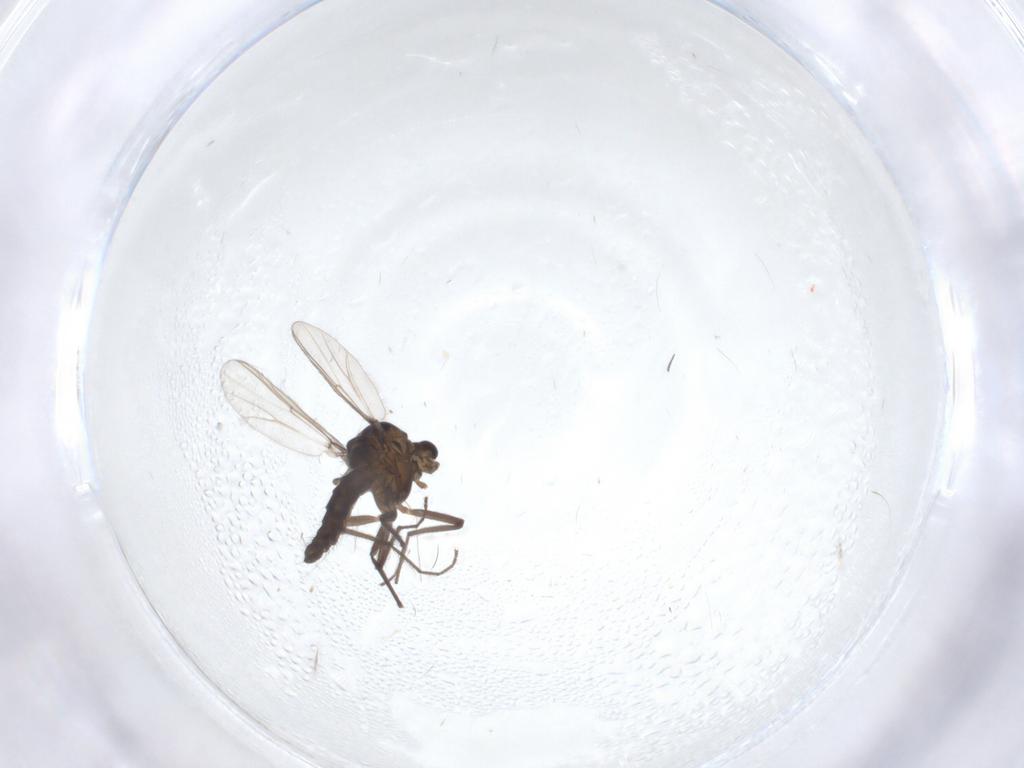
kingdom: Animalia
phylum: Arthropoda
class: Insecta
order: Diptera
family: Chironomidae
